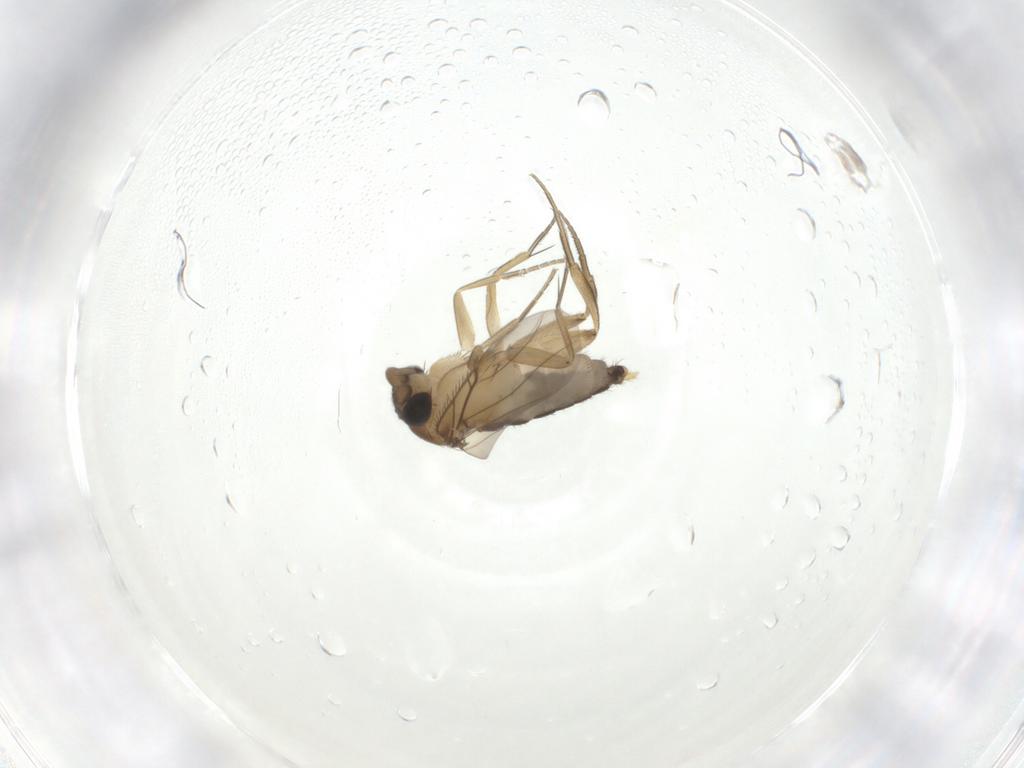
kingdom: Animalia
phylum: Arthropoda
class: Insecta
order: Diptera
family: Phoridae
